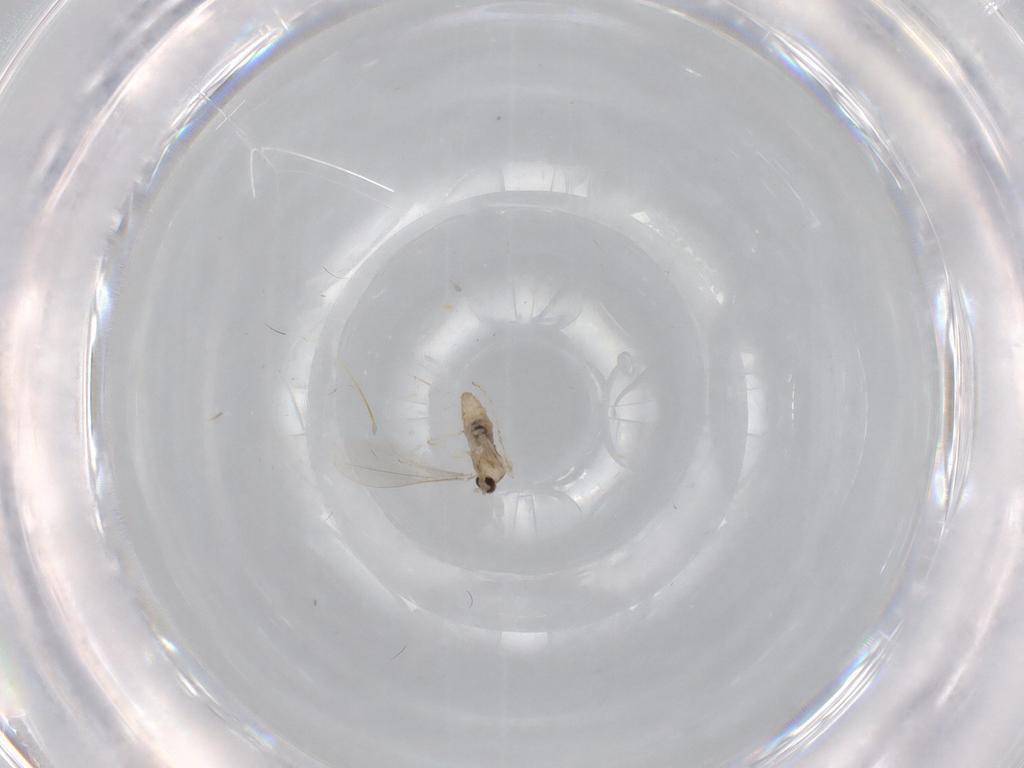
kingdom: Animalia
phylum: Arthropoda
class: Insecta
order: Diptera
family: Cecidomyiidae
